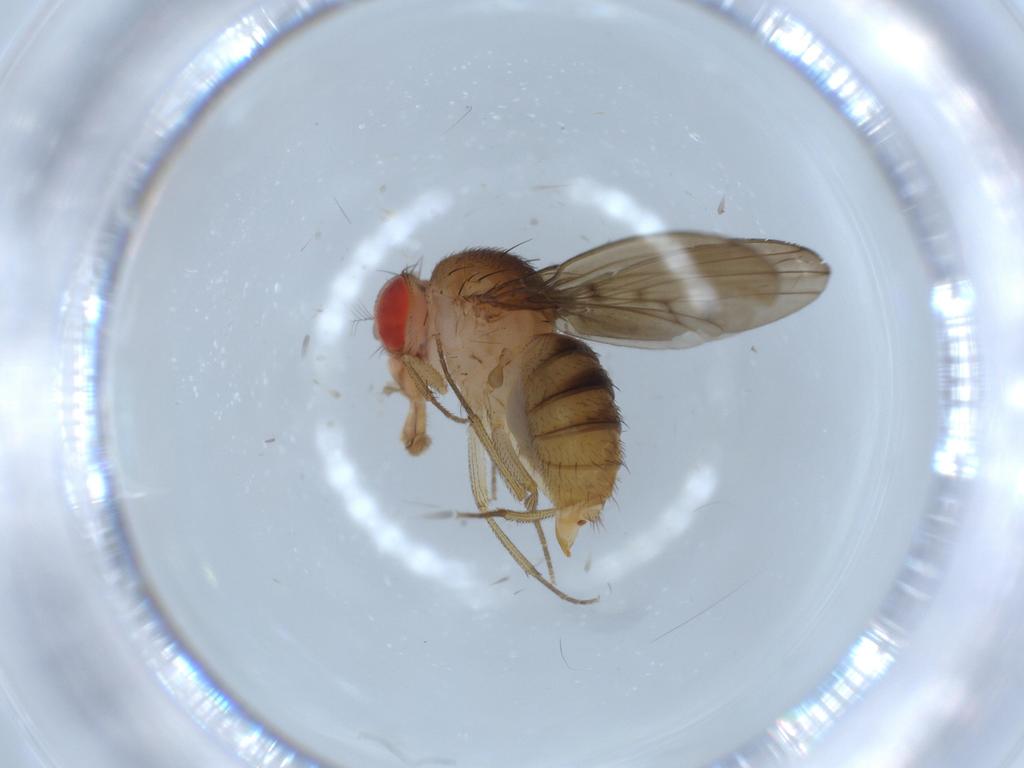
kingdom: Animalia
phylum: Arthropoda
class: Insecta
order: Diptera
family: Drosophilidae
